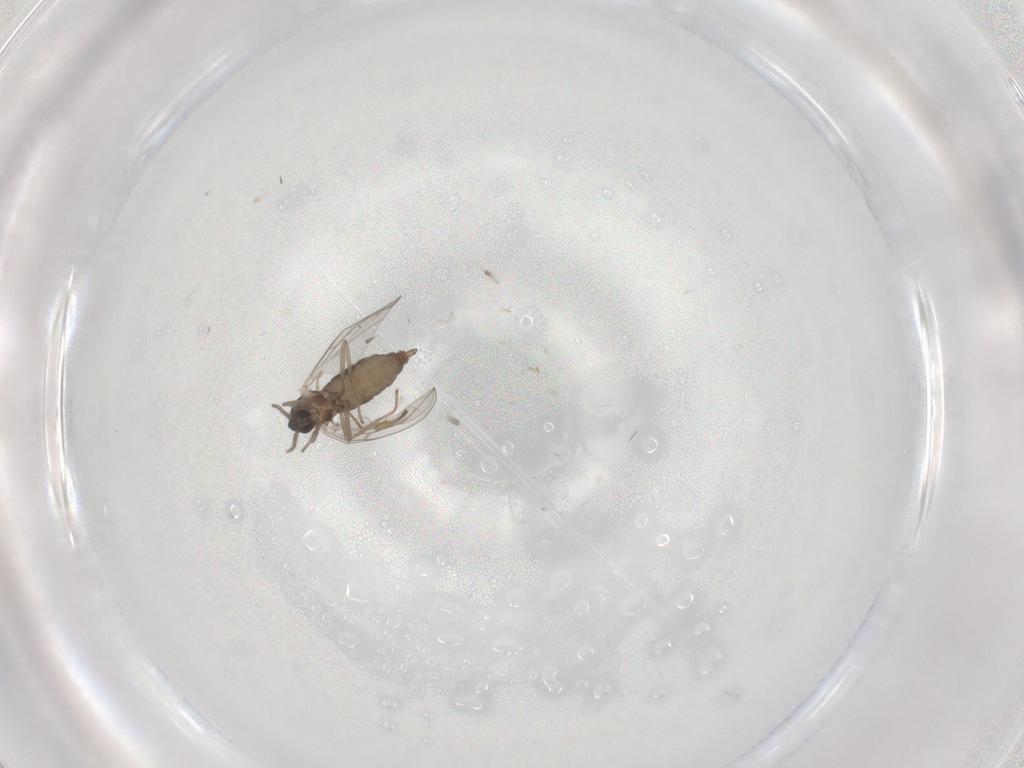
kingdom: Animalia
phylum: Arthropoda
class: Insecta
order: Diptera
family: Cecidomyiidae
